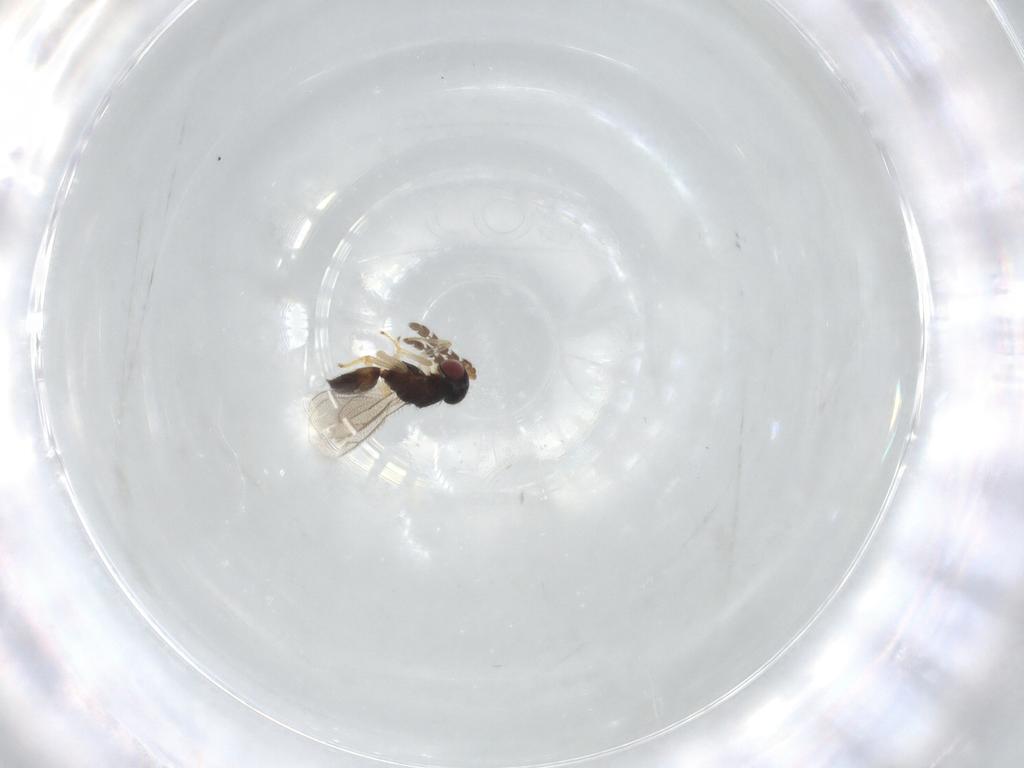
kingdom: Animalia
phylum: Arthropoda
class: Insecta
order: Hymenoptera
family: Eulophidae
